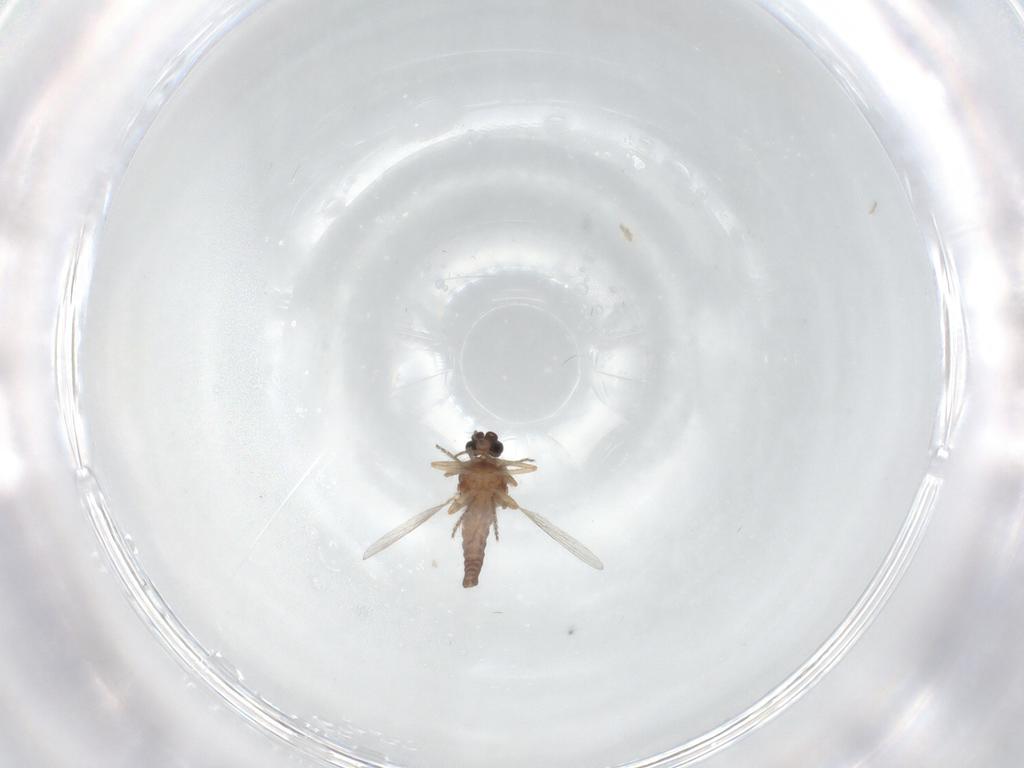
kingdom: Animalia
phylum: Arthropoda
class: Insecta
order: Diptera
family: Ceratopogonidae
